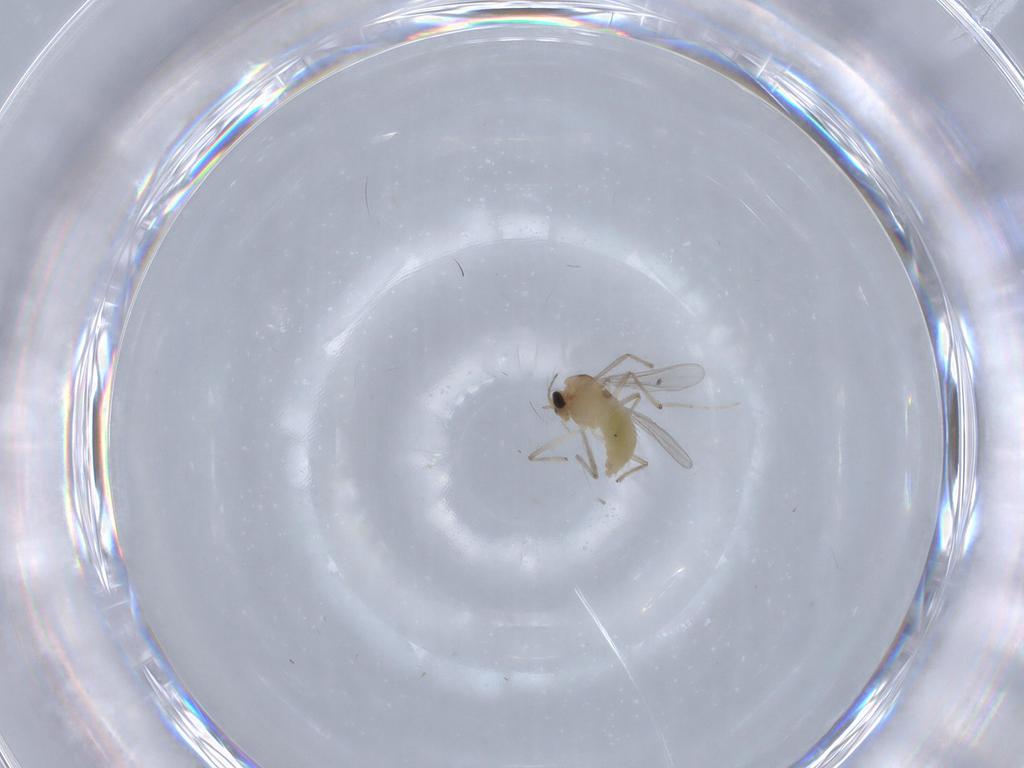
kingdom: Animalia
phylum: Arthropoda
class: Insecta
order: Diptera
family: Chironomidae
